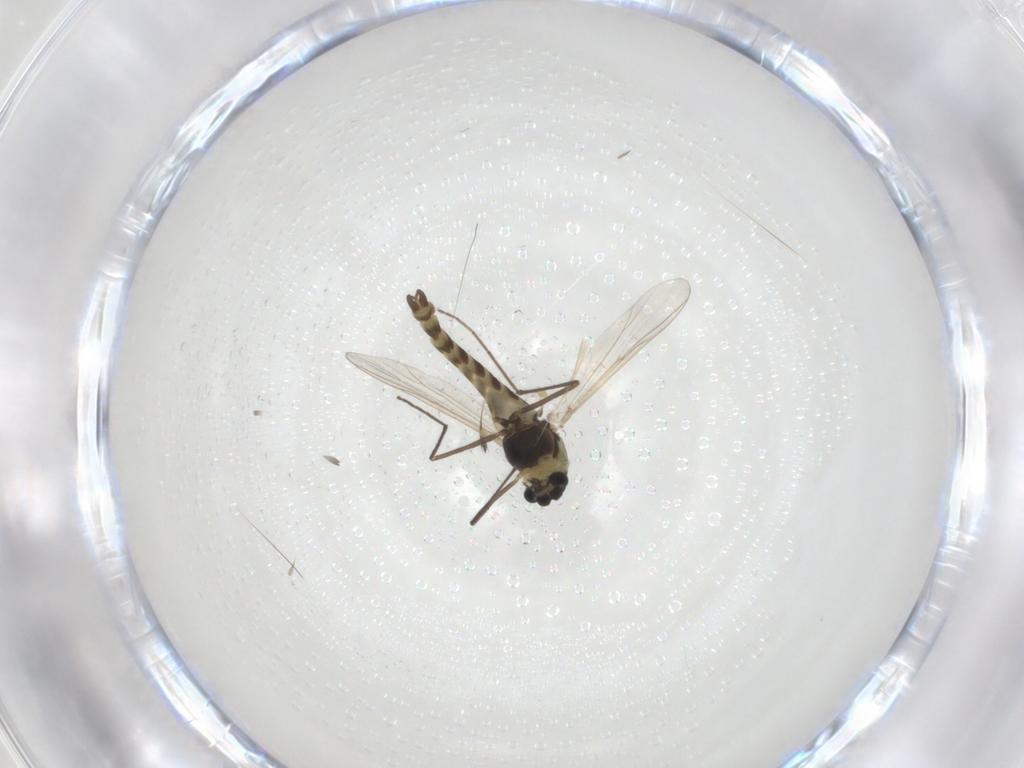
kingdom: Animalia
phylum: Arthropoda
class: Insecta
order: Diptera
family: Chironomidae
